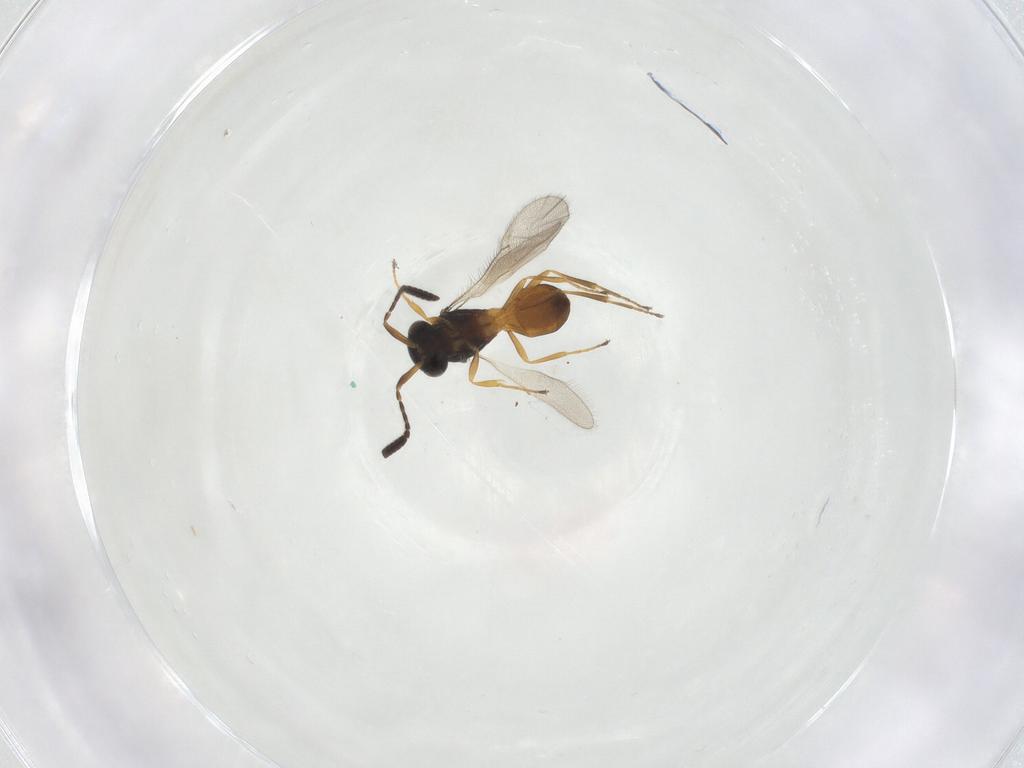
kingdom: Animalia
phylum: Arthropoda
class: Insecta
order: Hymenoptera
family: Scelionidae
